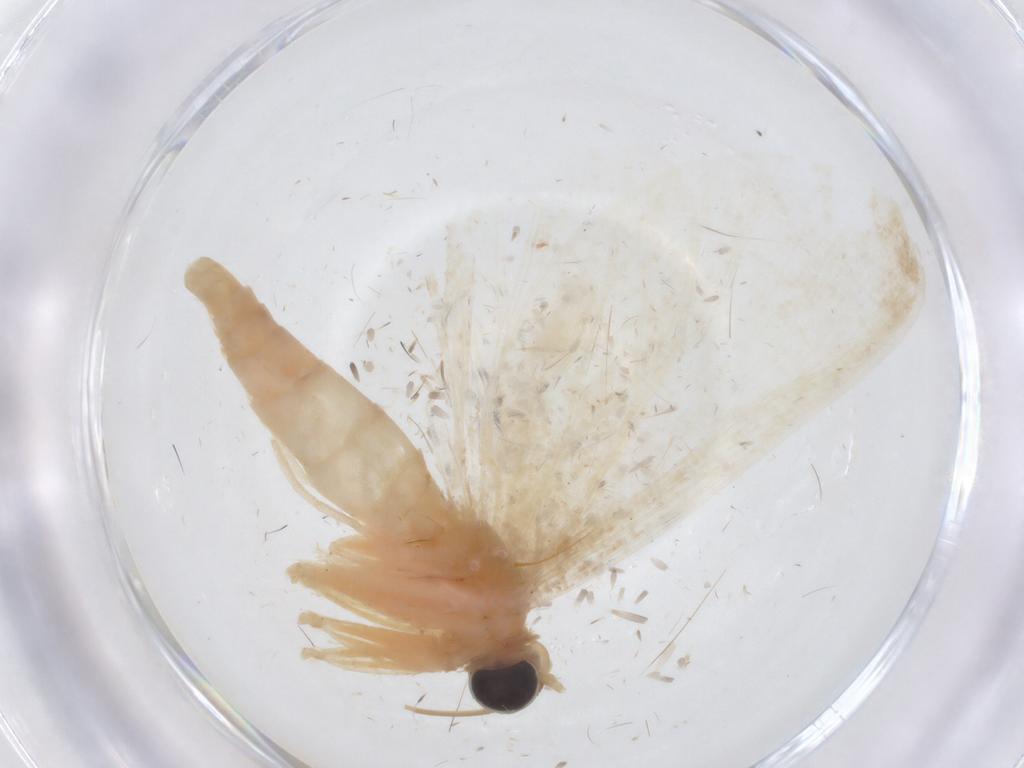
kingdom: Animalia
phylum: Arthropoda
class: Insecta
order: Lepidoptera
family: Geometridae
